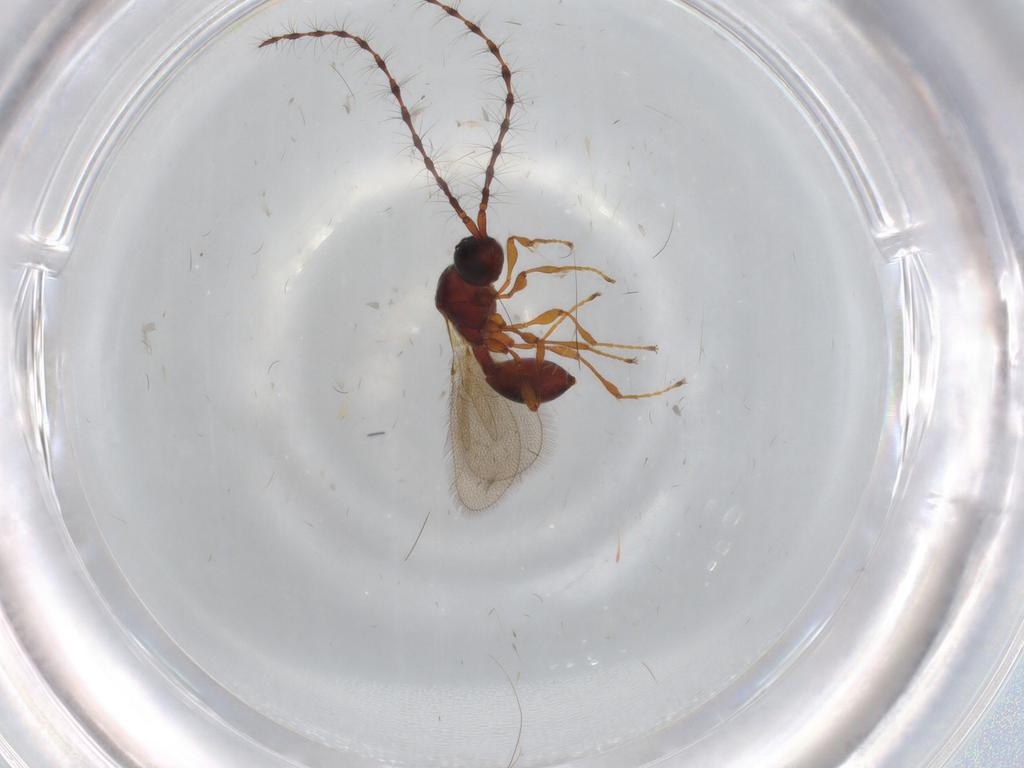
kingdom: Animalia
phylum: Arthropoda
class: Insecta
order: Hymenoptera
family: Diapriidae
